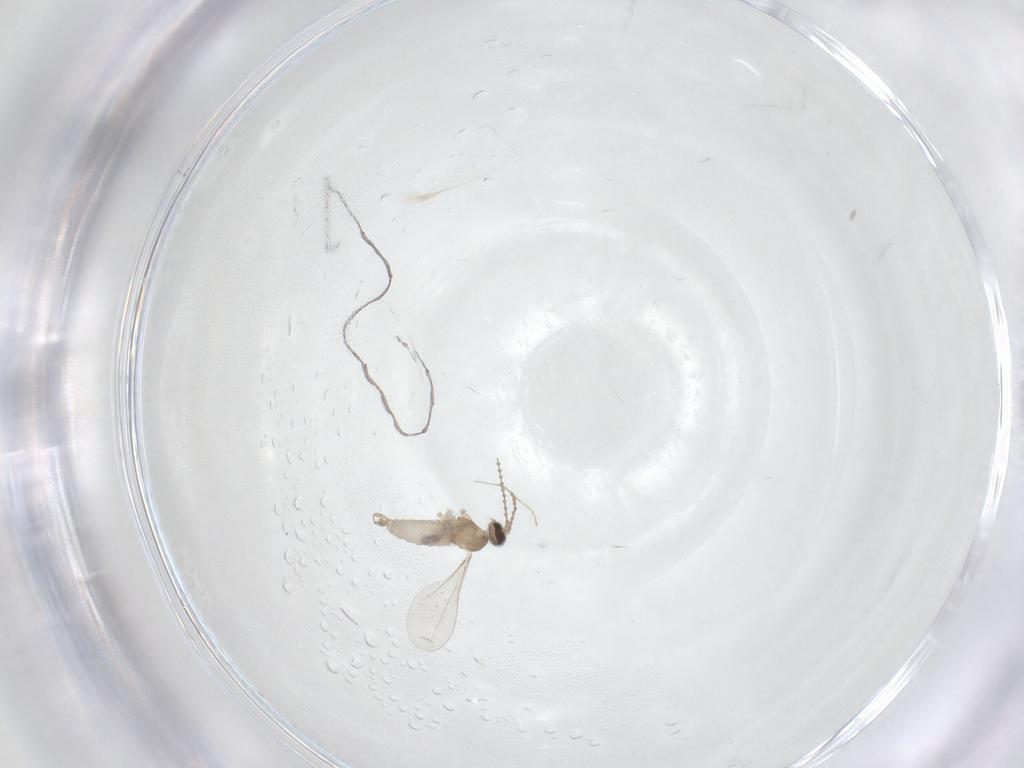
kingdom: Animalia
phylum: Arthropoda
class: Insecta
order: Diptera
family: Cecidomyiidae
